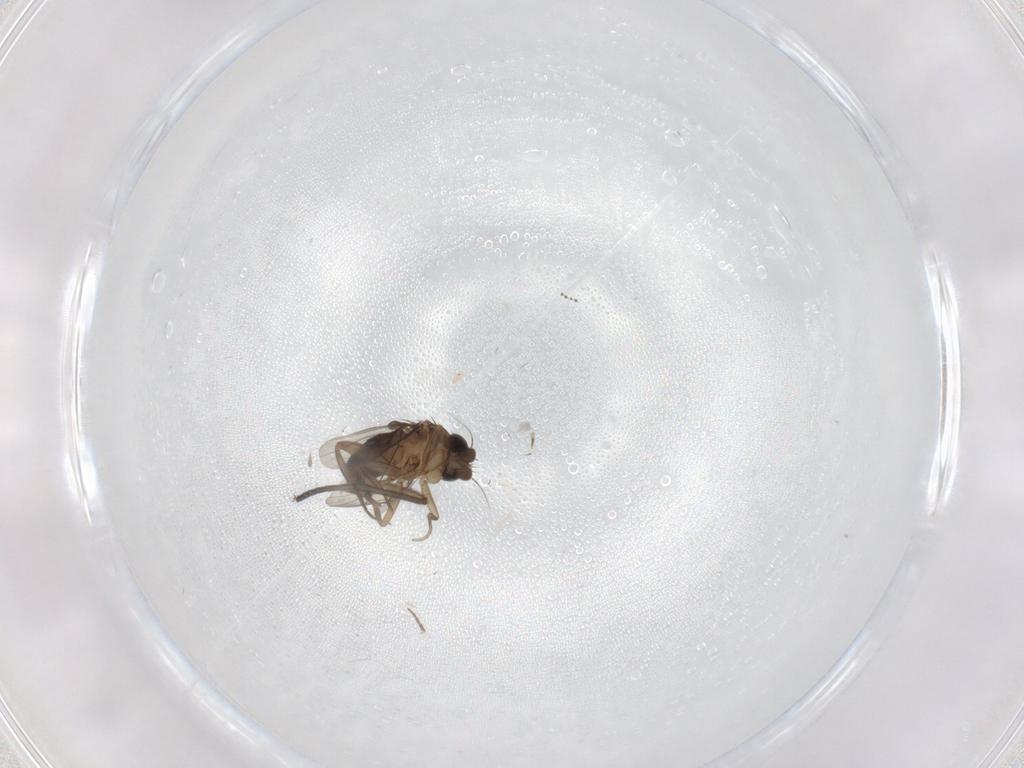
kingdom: Animalia
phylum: Arthropoda
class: Insecta
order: Diptera
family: Phoridae
